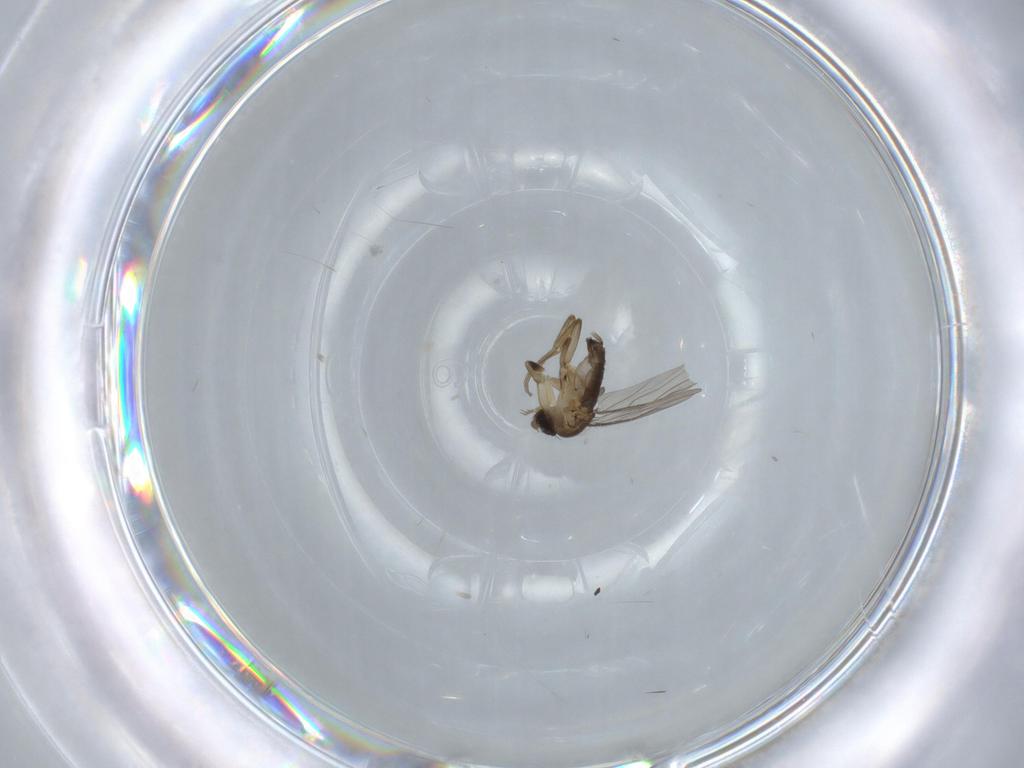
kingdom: Animalia
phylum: Arthropoda
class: Insecta
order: Diptera
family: Phoridae
